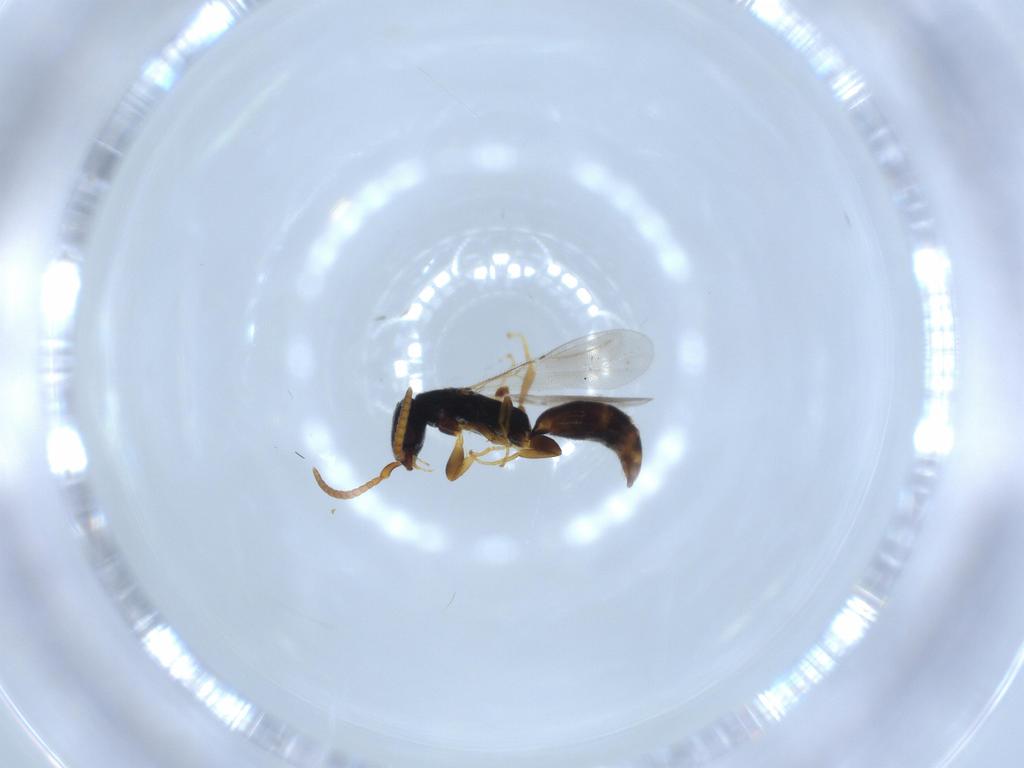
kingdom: Animalia
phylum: Arthropoda
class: Insecta
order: Hymenoptera
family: Bethylidae
